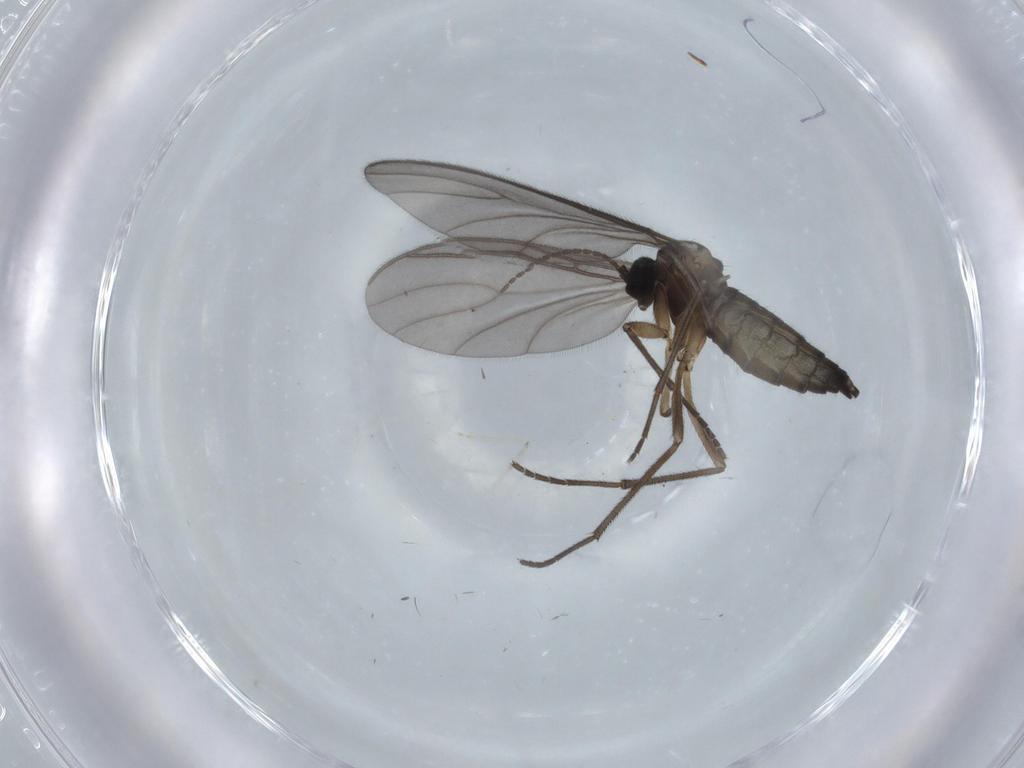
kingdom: Animalia
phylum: Arthropoda
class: Insecta
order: Diptera
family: Sciaridae
